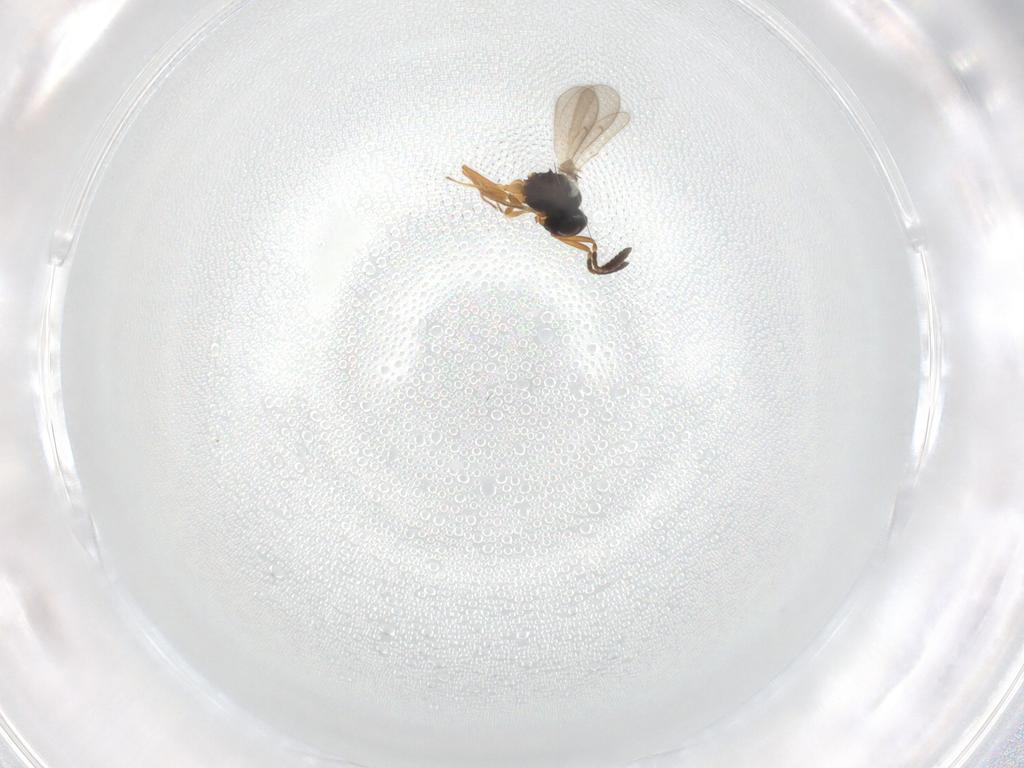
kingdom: Animalia
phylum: Arthropoda
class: Insecta
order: Hymenoptera
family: Scelionidae
